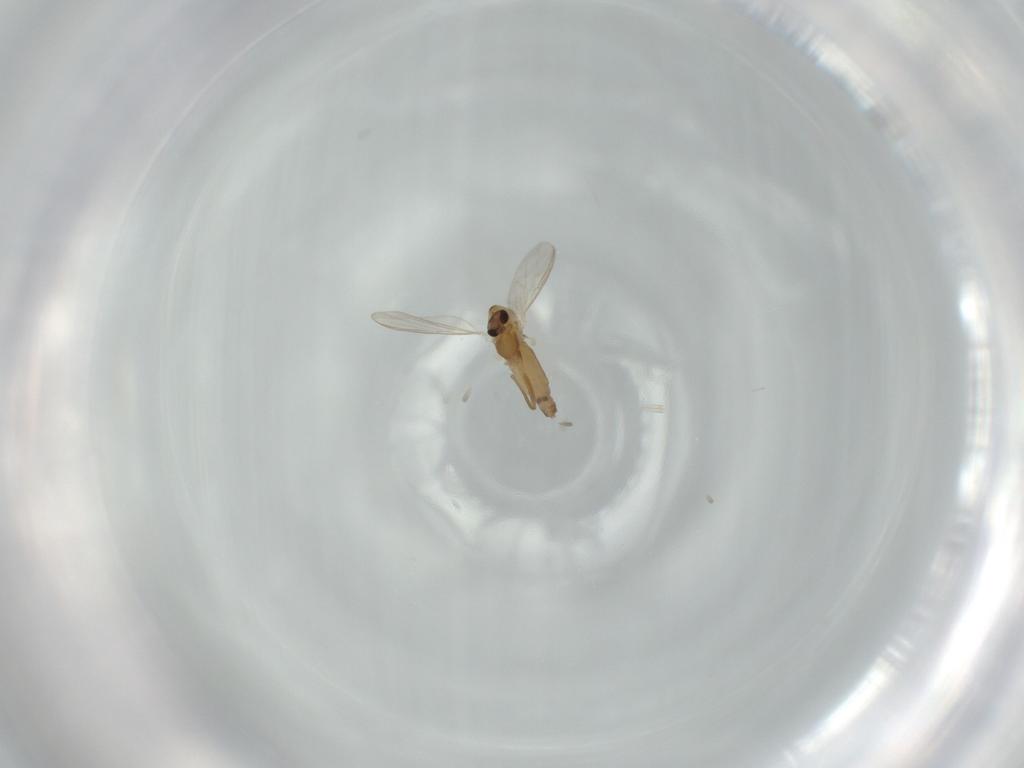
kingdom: Animalia
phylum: Arthropoda
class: Insecta
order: Diptera
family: Chironomidae
